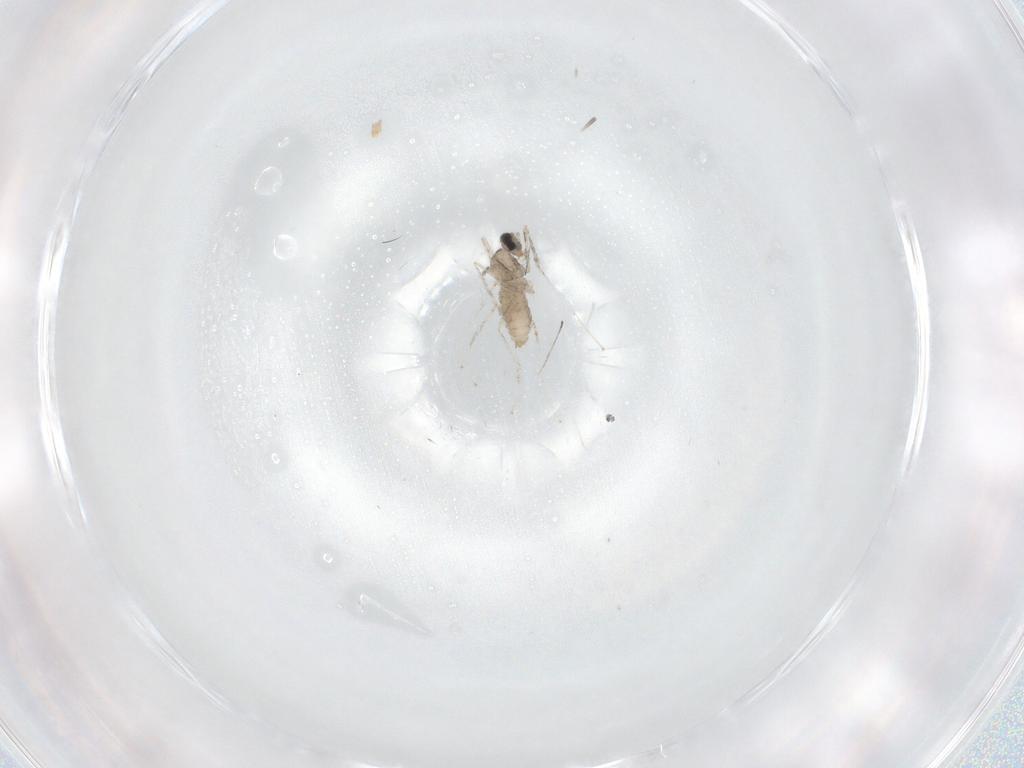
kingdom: Animalia
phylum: Arthropoda
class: Insecta
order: Diptera
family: Cecidomyiidae
